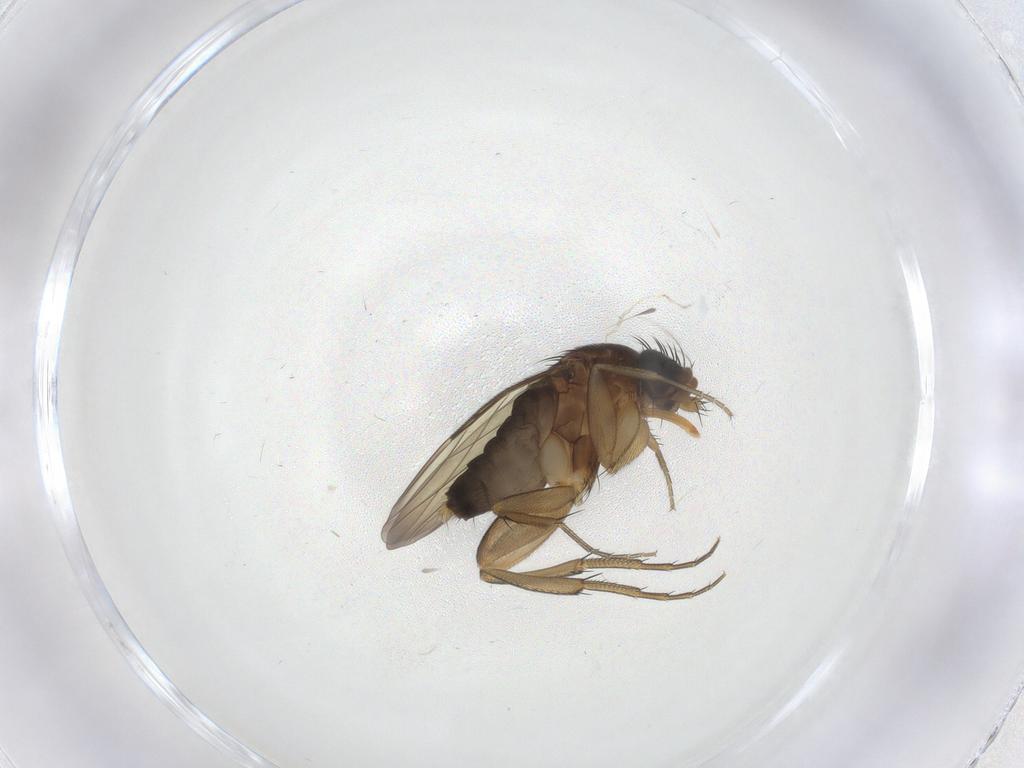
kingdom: Animalia
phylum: Arthropoda
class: Insecta
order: Diptera
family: Phoridae
